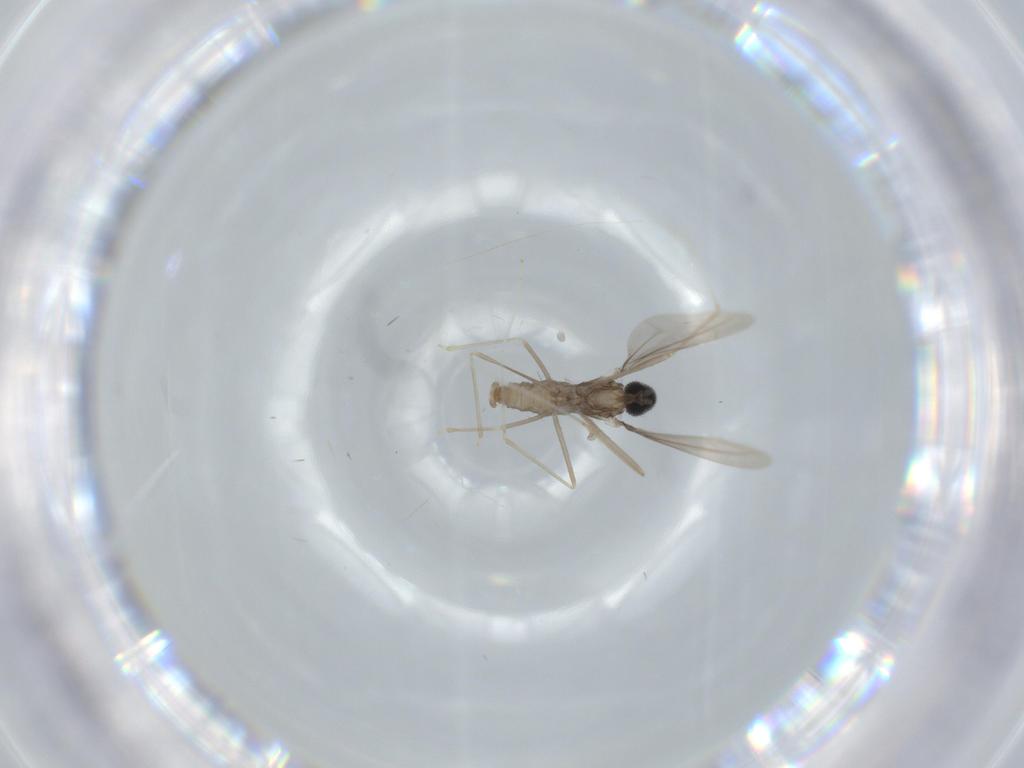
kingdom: Animalia
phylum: Arthropoda
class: Insecta
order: Diptera
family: Cecidomyiidae
